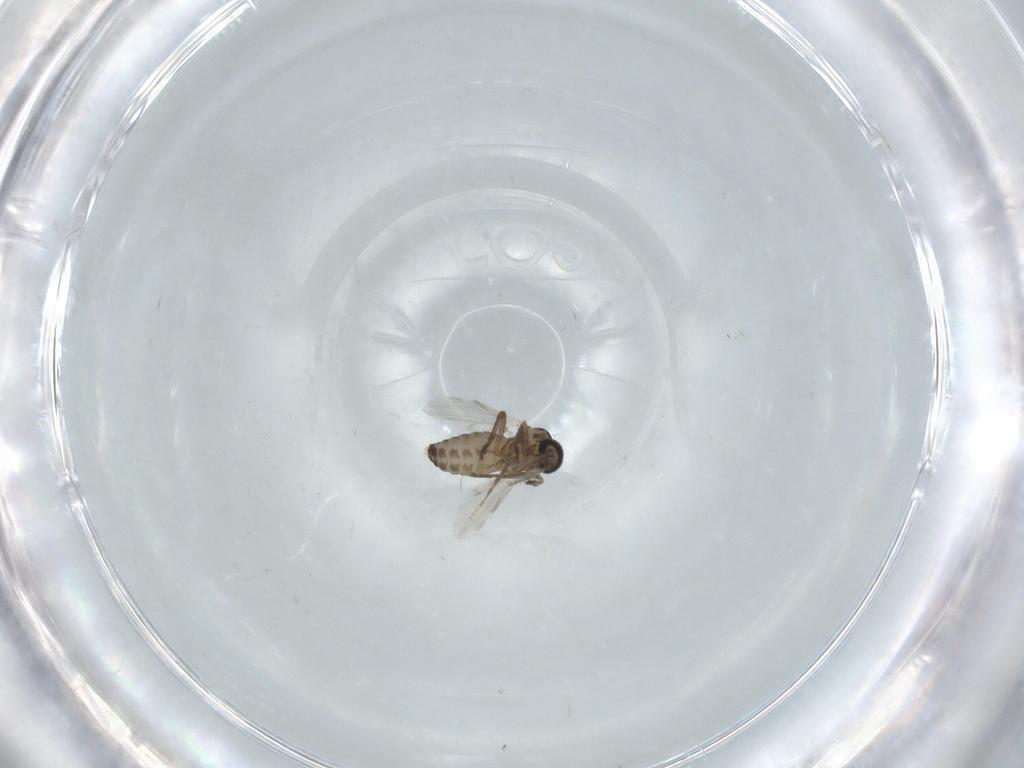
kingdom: Animalia
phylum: Arthropoda
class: Insecta
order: Diptera
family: Ceratopogonidae
